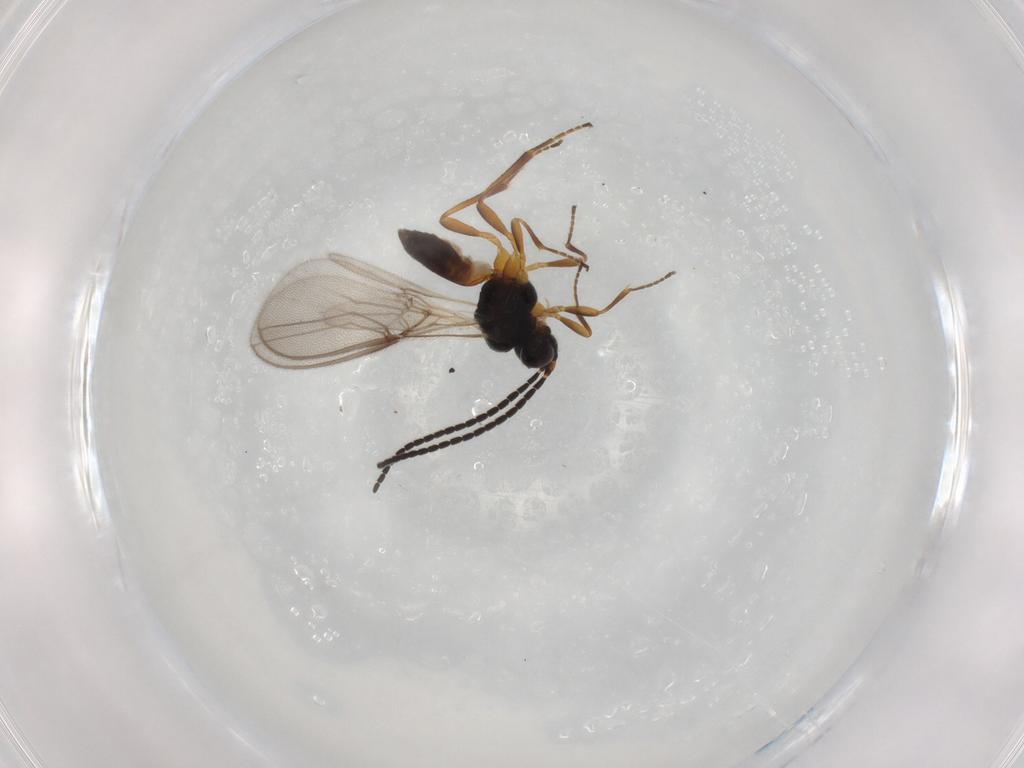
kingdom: Animalia
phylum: Arthropoda
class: Insecta
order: Hymenoptera
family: Braconidae
